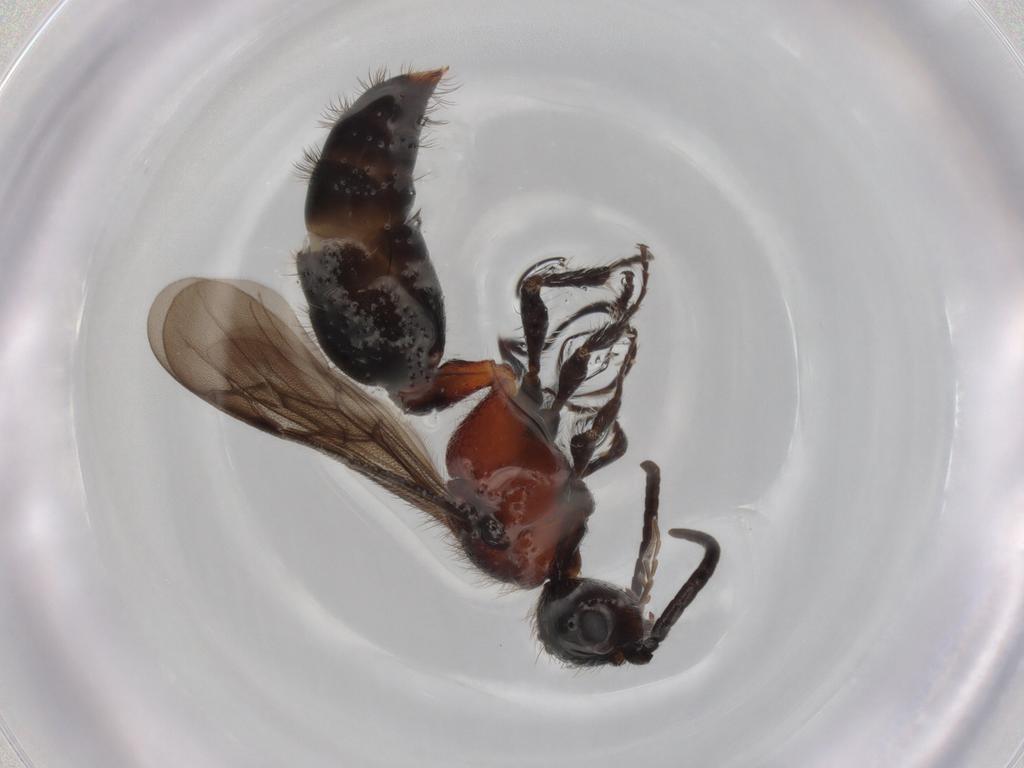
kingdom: Animalia
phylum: Arthropoda
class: Insecta
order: Hymenoptera
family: Mutillidae
